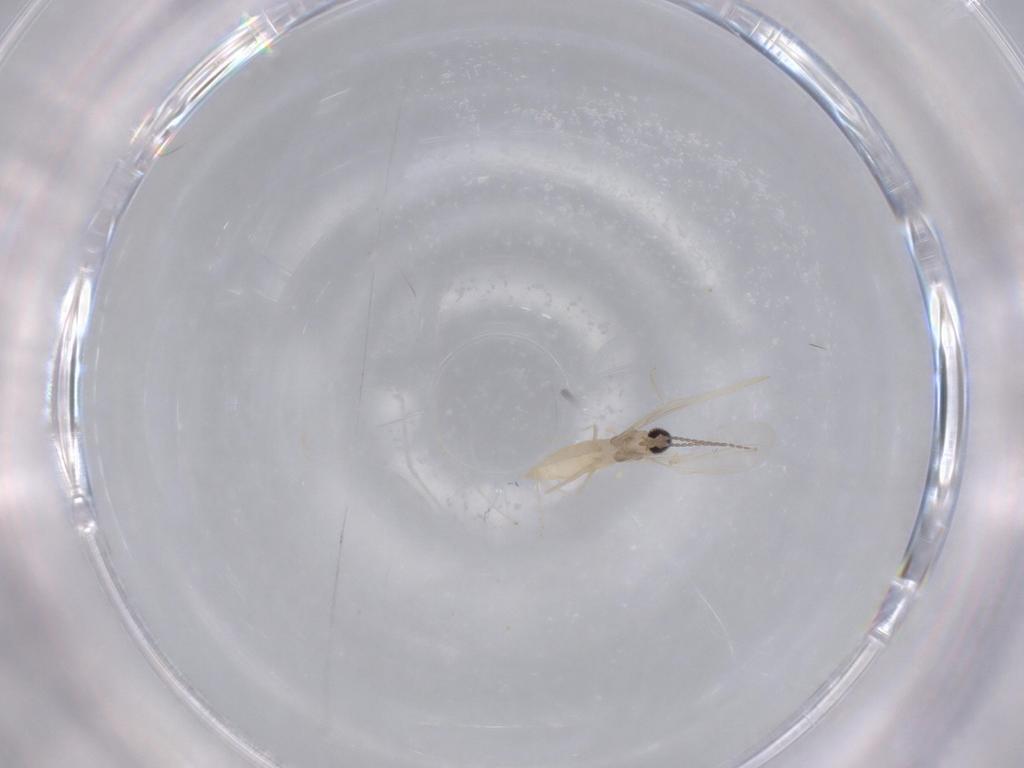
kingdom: Animalia
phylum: Arthropoda
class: Insecta
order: Diptera
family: Cecidomyiidae
